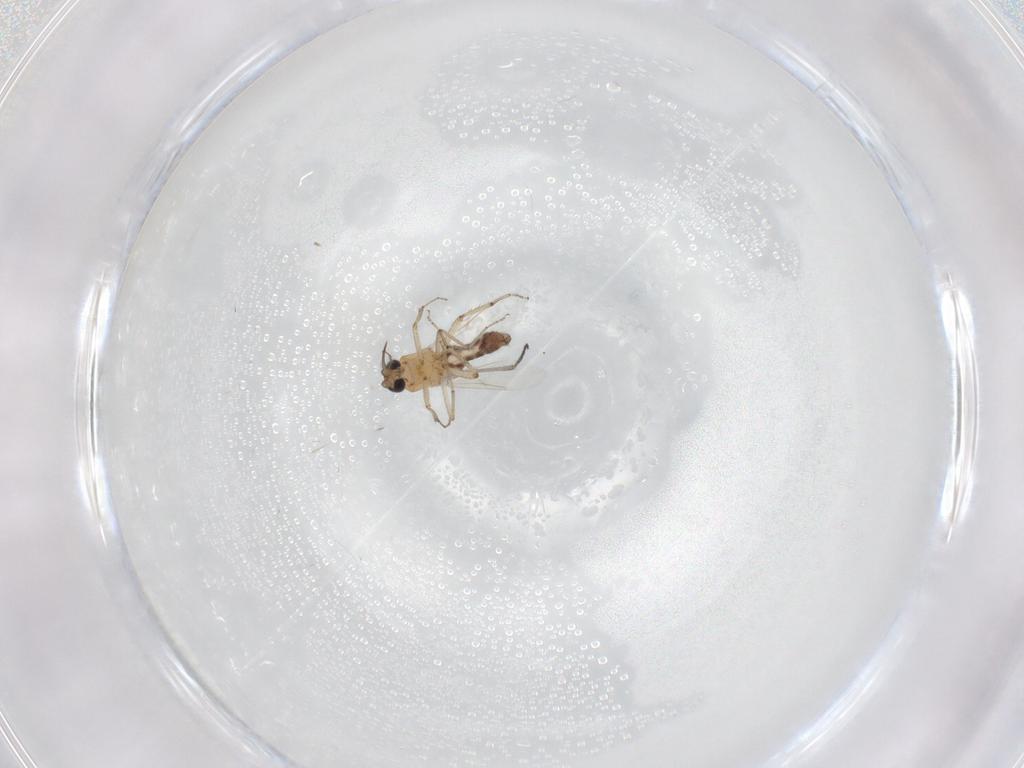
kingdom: Animalia
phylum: Arthropoda
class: Insecta
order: Diptera
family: Sciaridae
